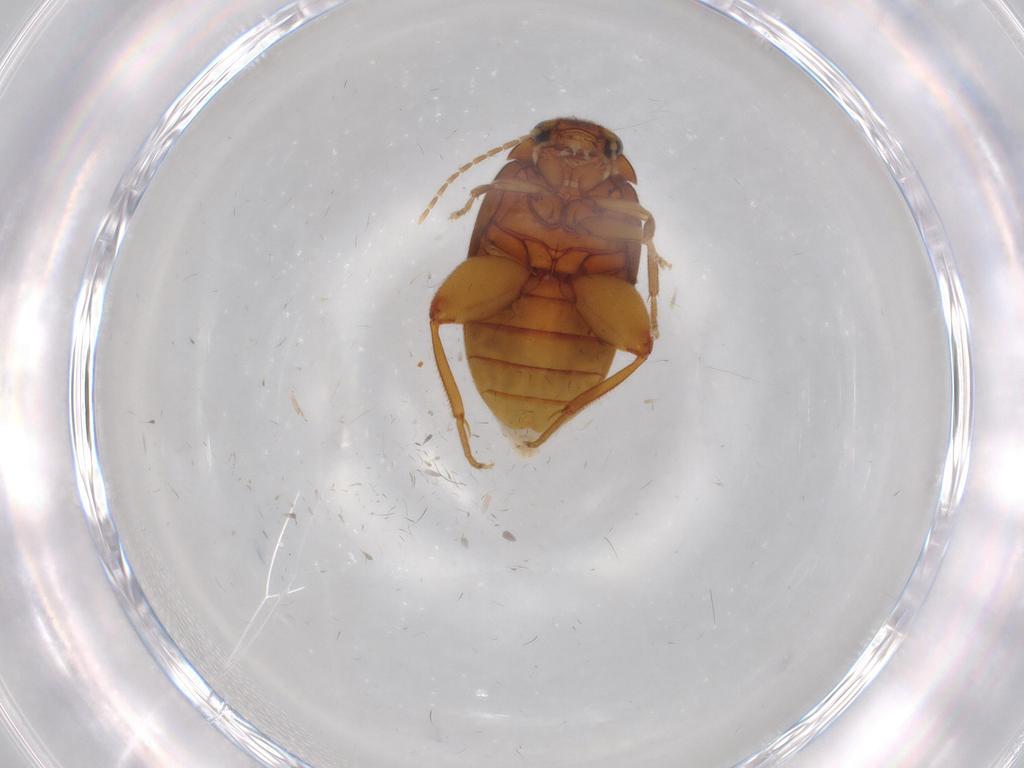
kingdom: Animalia
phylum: Arthropoda
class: Insecta
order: Coleoptera
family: Scirtidae
